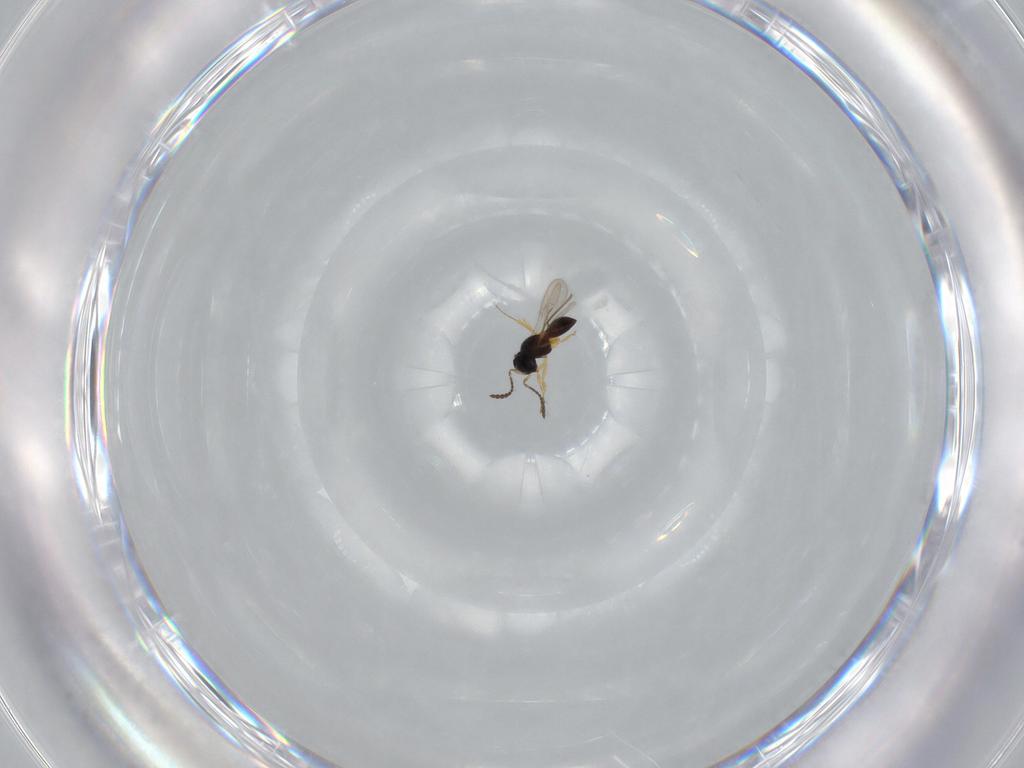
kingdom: Animalia
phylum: Arthropoda
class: Insecta
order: Hymenoptera
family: Scelionidae
